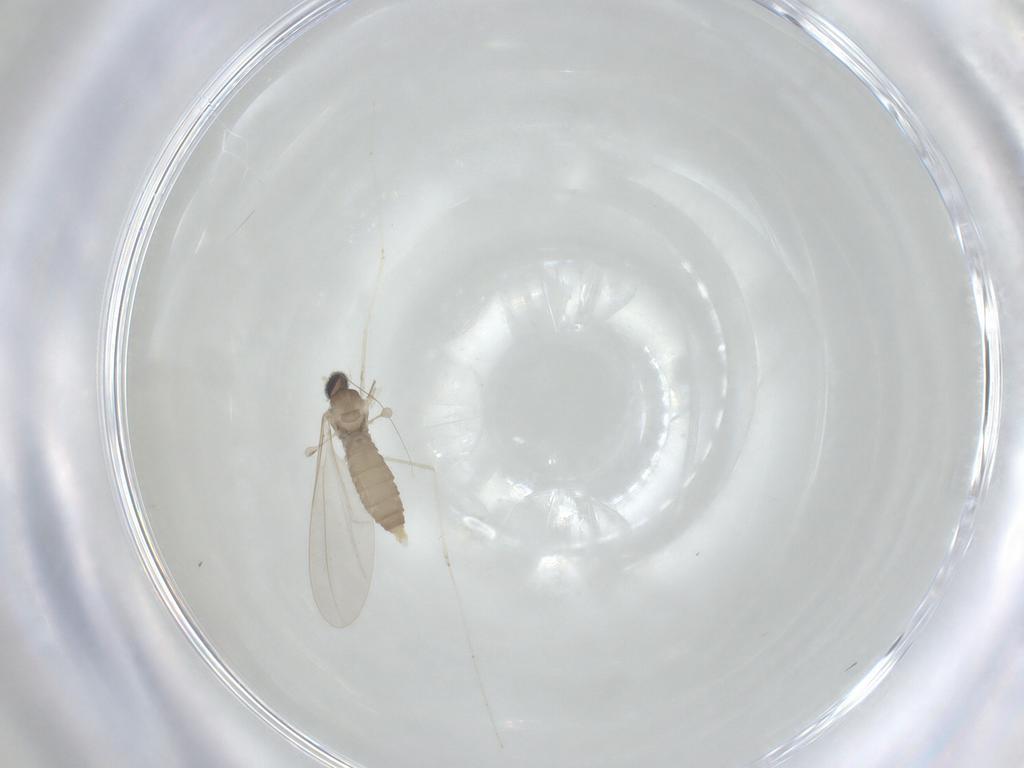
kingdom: Animalia
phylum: Arthropoda
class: Insecta
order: Diptera
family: Cecidomyiidae
